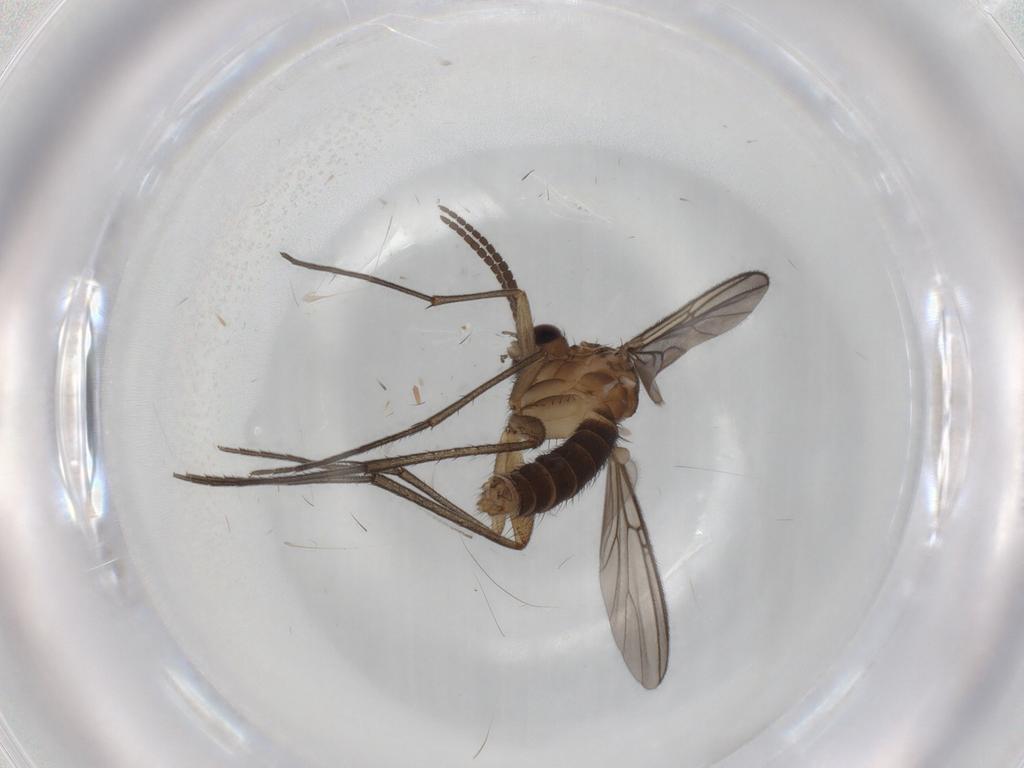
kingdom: Animalia
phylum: Arthropoda
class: Insecta
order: Diptera
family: Mycetophilidae
